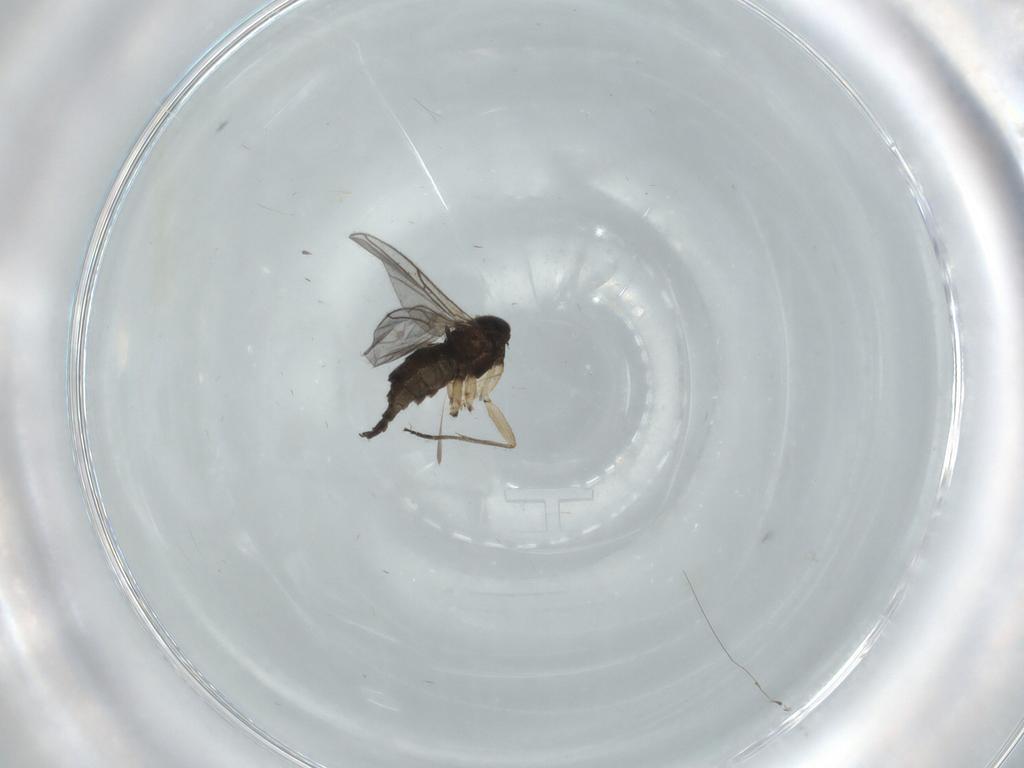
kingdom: Animalia
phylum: Arthropoda
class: Insecta
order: Diptera
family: Sciaridae
